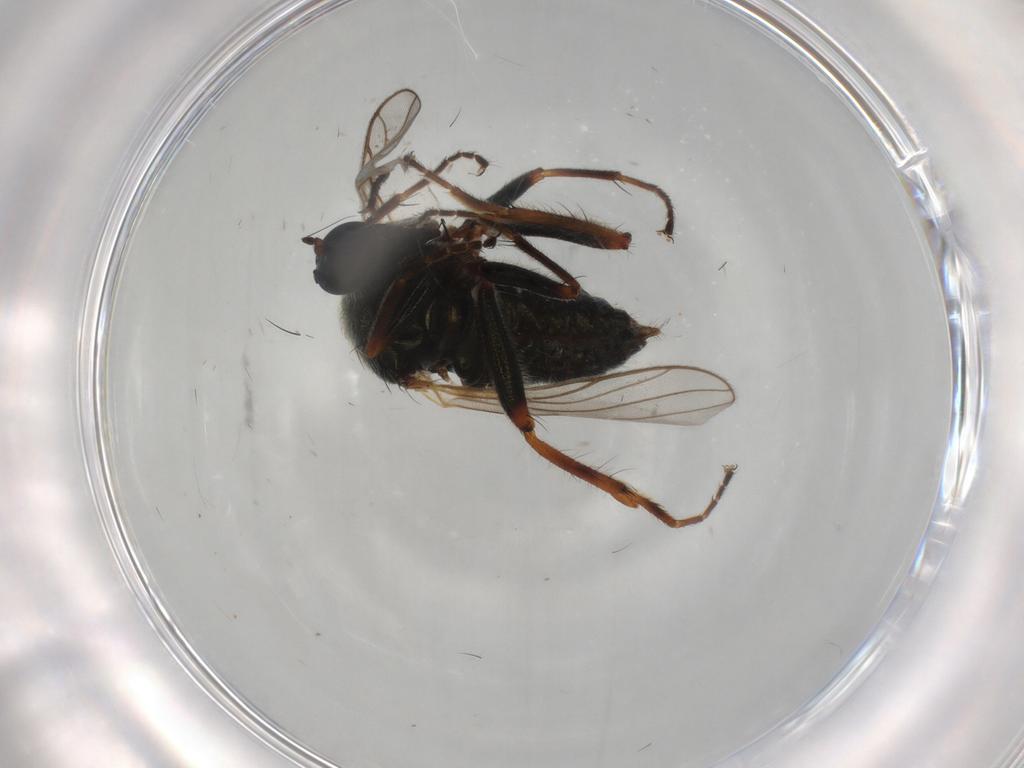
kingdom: Animalia
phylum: Arthropoda
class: Insecta
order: Diptera
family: Hybotidae
